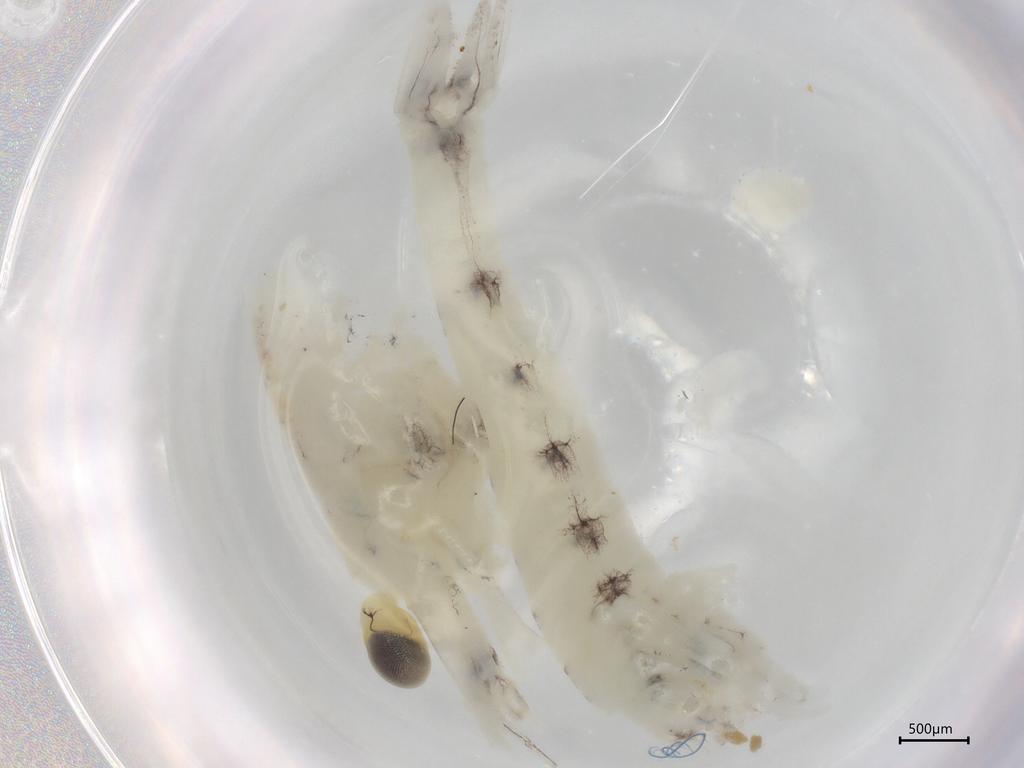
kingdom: Animalia
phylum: Arthropoda
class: Malacostraca
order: Mysida
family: Mysidae
